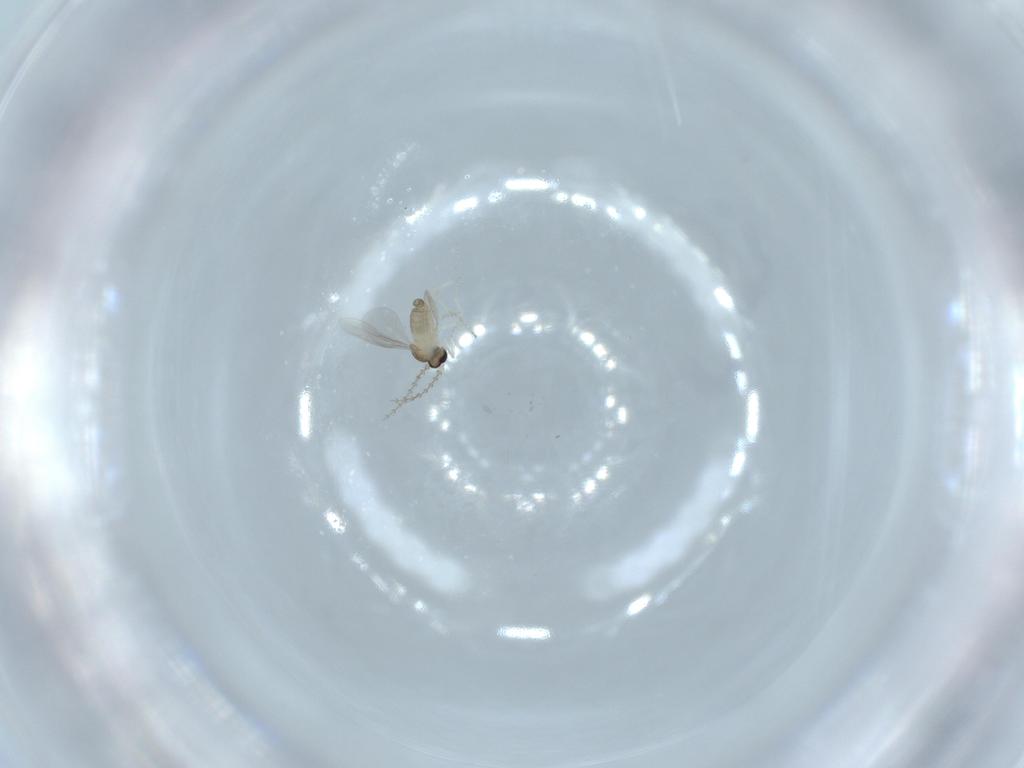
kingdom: Animalia
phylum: Arthropoda
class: Insecta
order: Diptera
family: Cecidomyiidae
